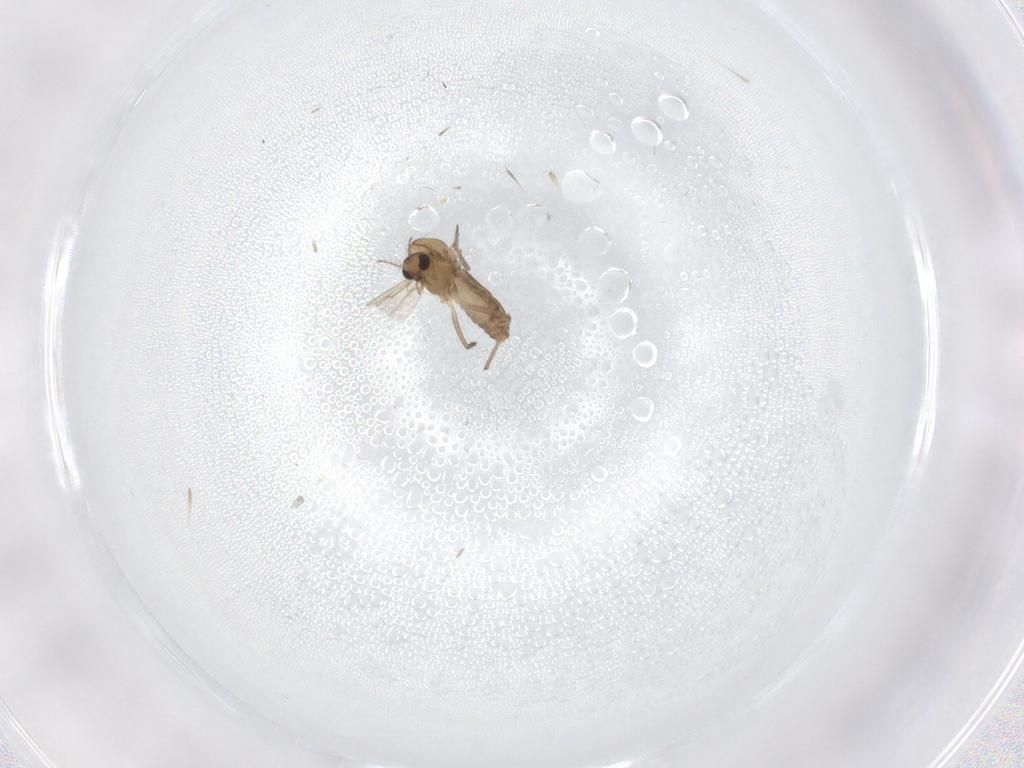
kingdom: Animalia
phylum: Arthropoda
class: Insecta
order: Diptera
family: Chironomidae
